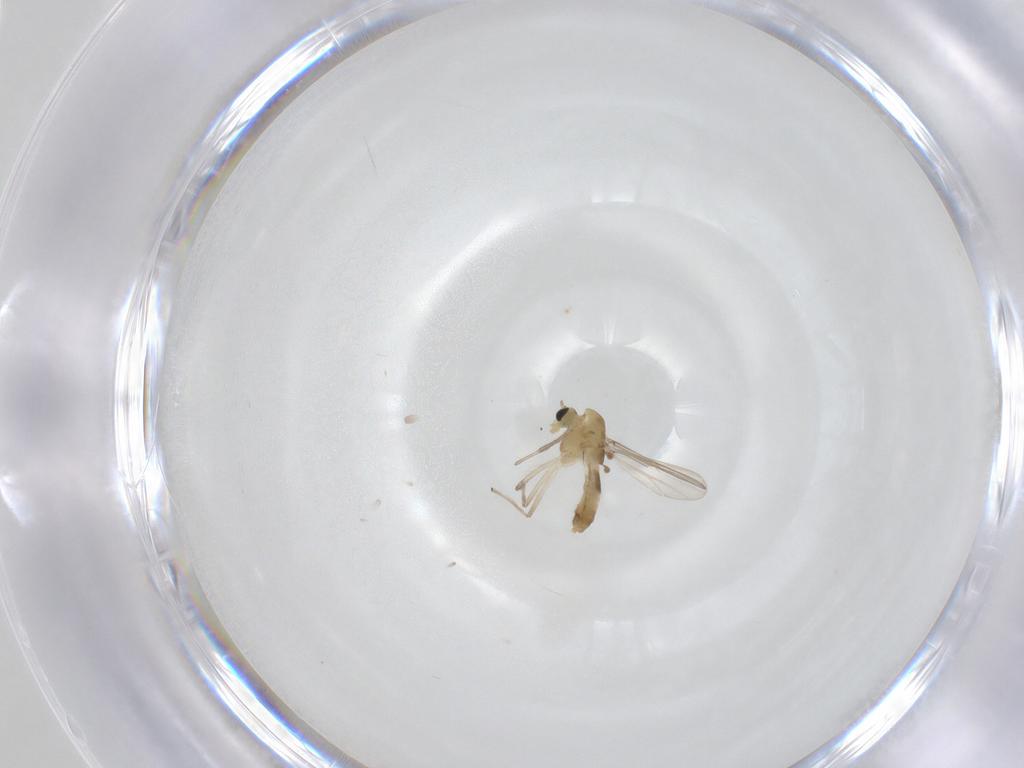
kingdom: Animalia
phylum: Arthropoda
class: Insecta
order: Diptera
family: Chironomidae
